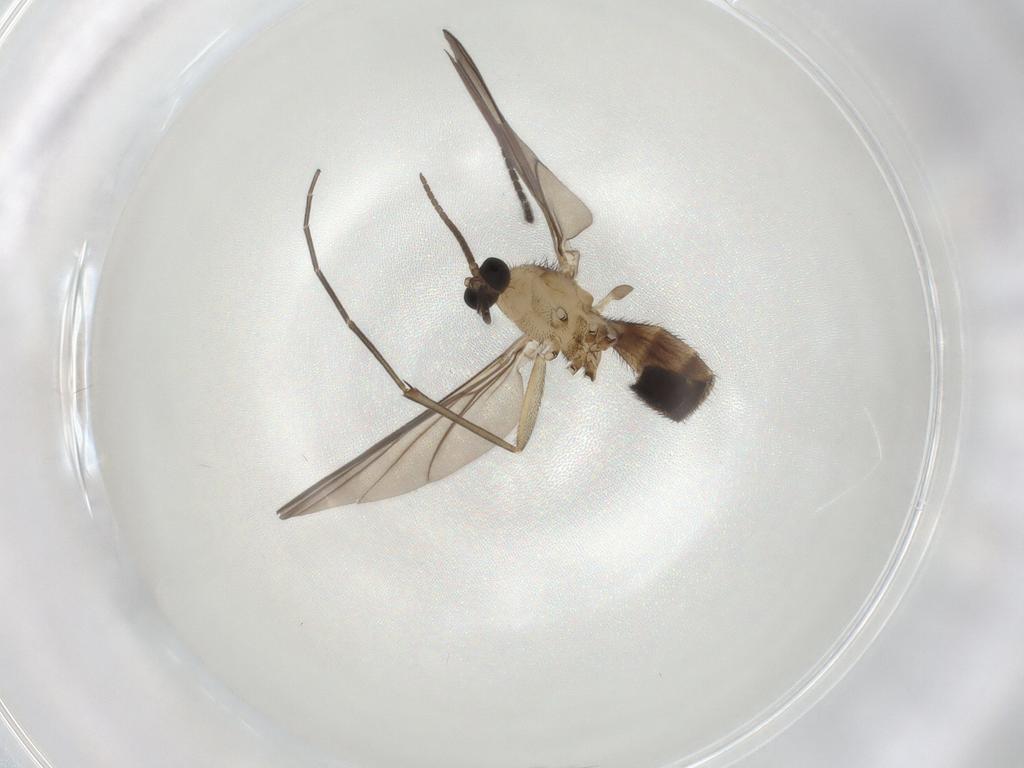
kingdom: Animalia
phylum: Arthropoda
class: Insecta
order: Diptera
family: Keroplatidae
